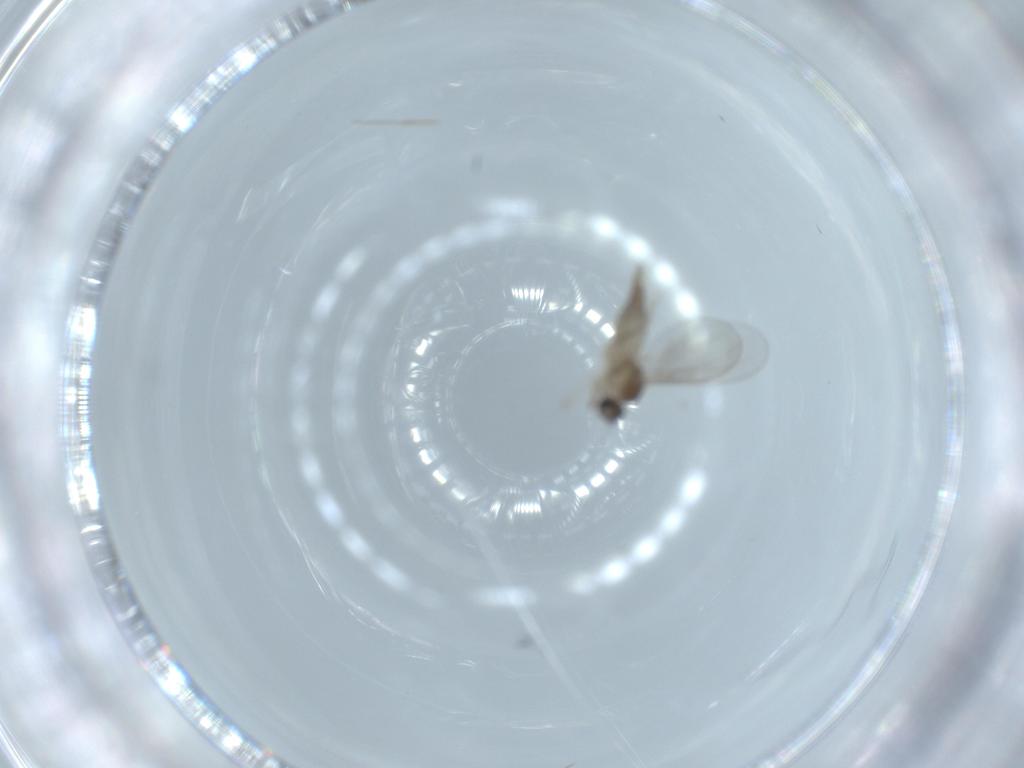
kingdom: Animalia
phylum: Arthropoda
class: Insecta
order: Diptera
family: Cecidomyiidae
